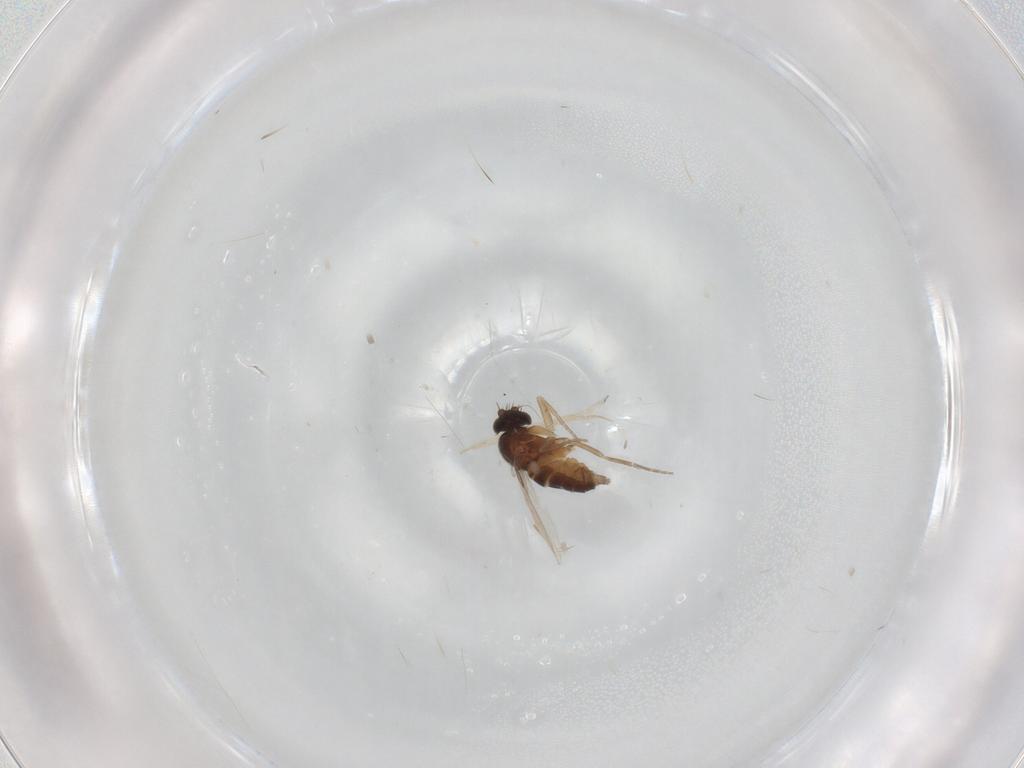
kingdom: Animalia
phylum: Arthropoda
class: Insecta
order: Diptera
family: Phoridae
